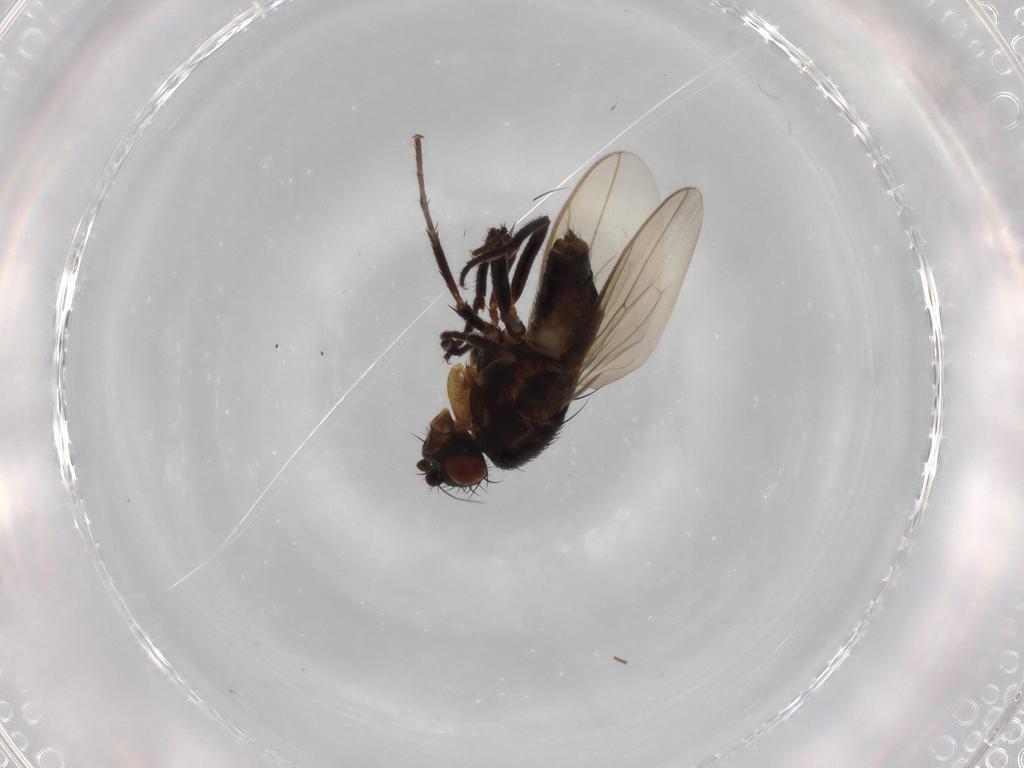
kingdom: Animalia
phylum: Arthropoda
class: Insecta
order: Diptera
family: Sphaeroceridae
